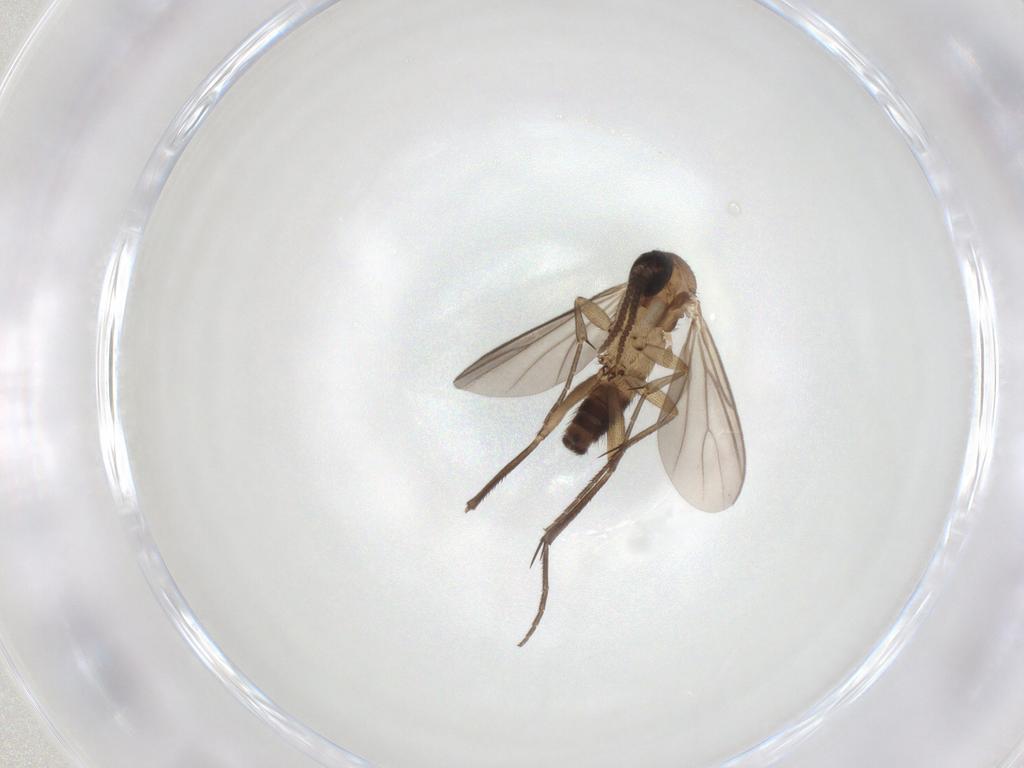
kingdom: Animalia
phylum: Arthropoda
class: Insecta
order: Diptera
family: Mycetophilidae
